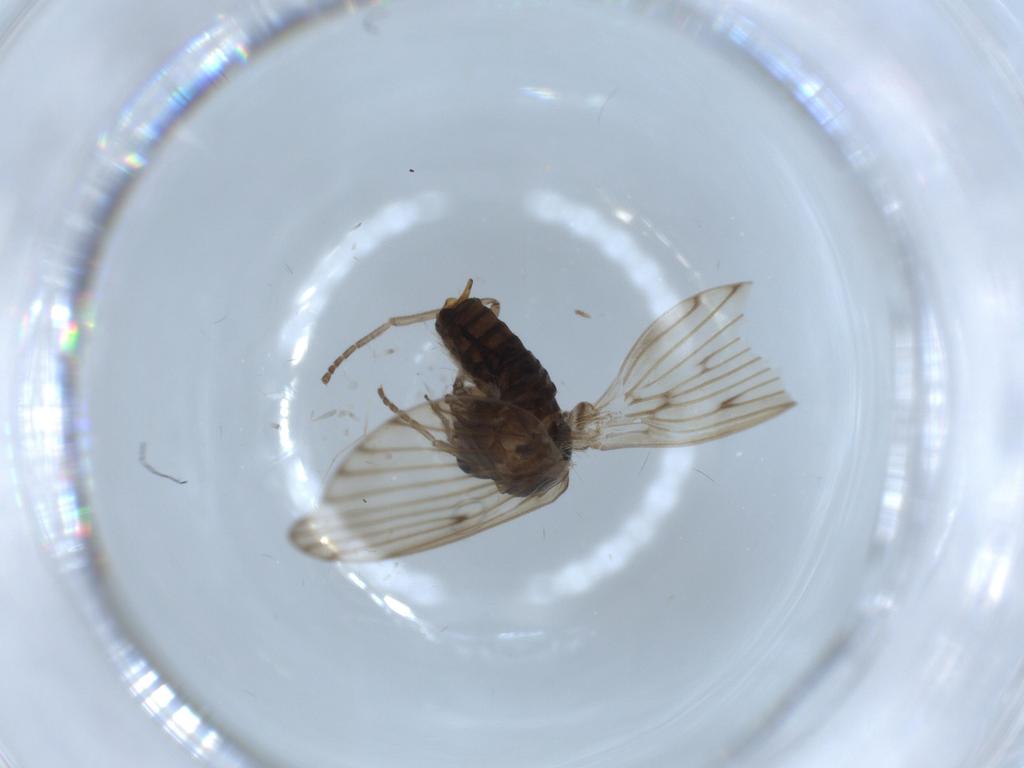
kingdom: Animalia
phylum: Arthropoda
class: Insecta
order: Diptera
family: Psychodidae
